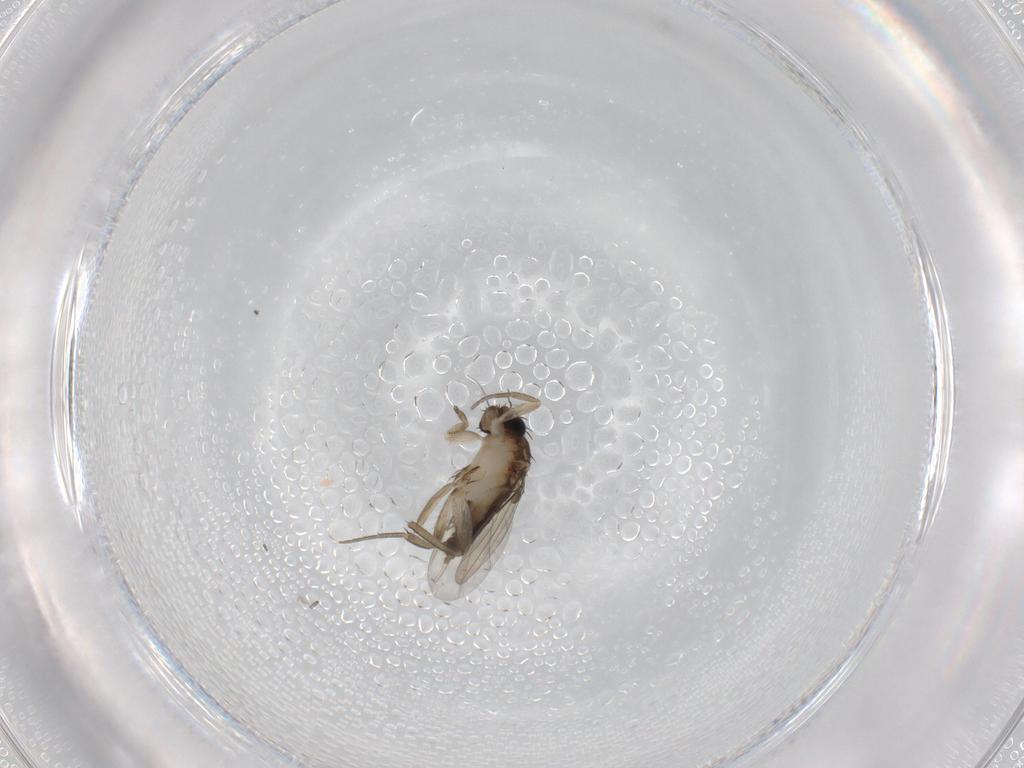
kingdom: Animalia
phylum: Arthropoda
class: Insecta
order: Diptera
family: Phoridae
